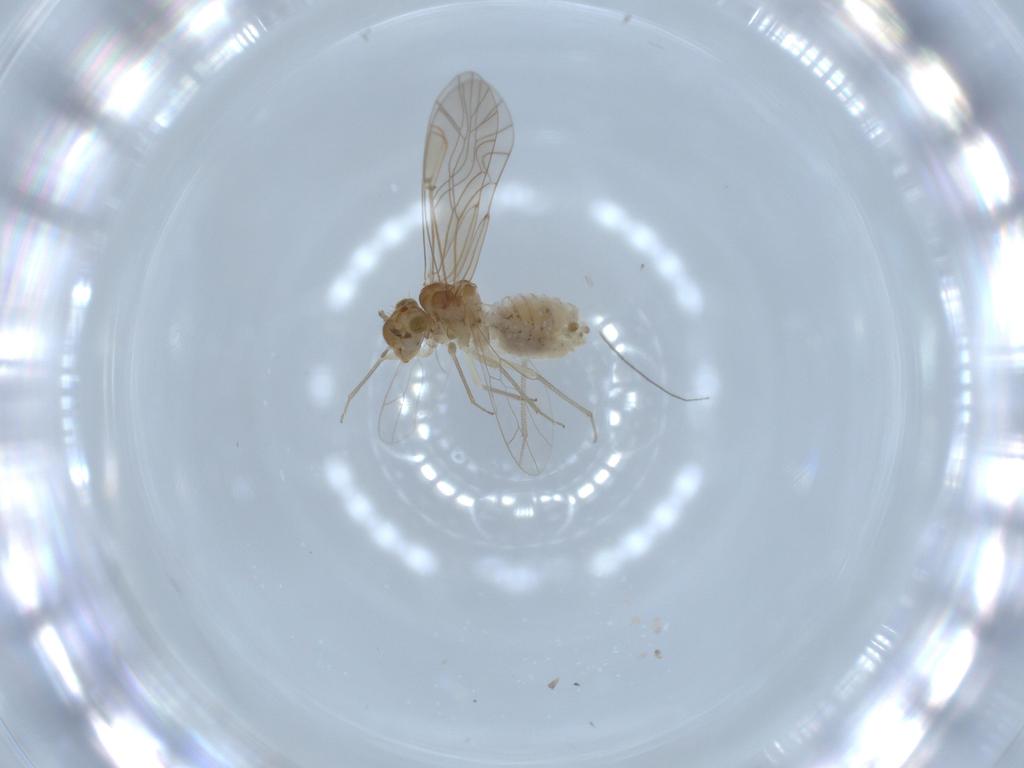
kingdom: Animalia
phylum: Arthropoda
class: Insecta
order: Psocodea
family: Lachesillidae
